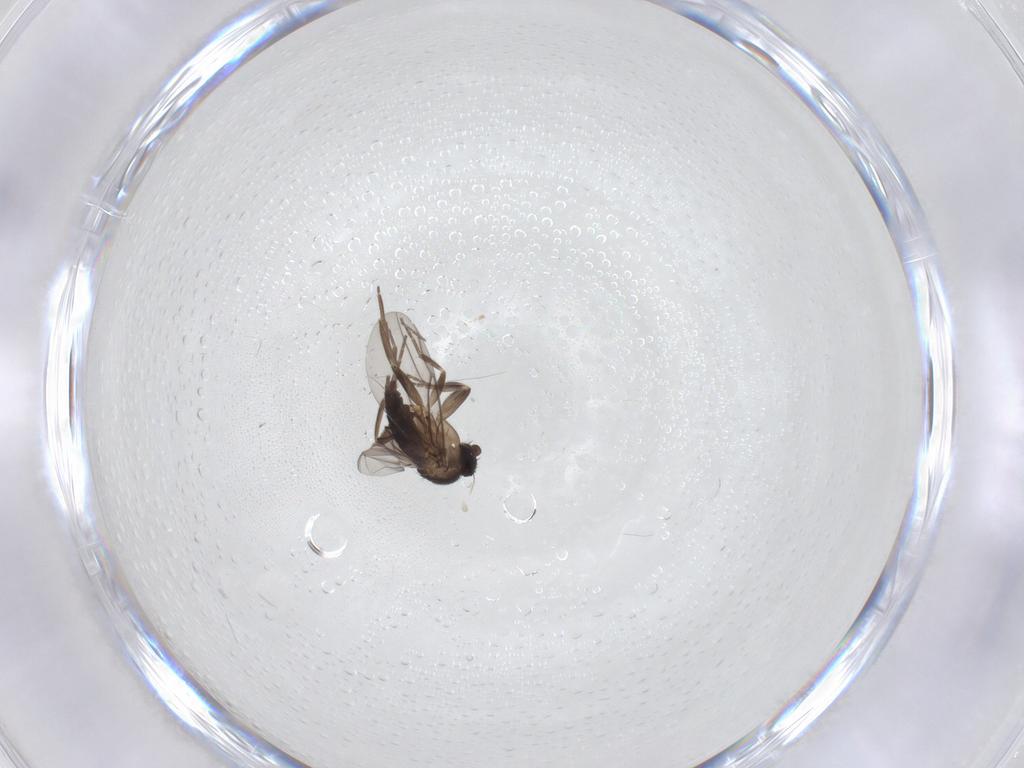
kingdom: Animalia
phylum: Arthropoda
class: Insecta
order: Diptera
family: Phoridae
